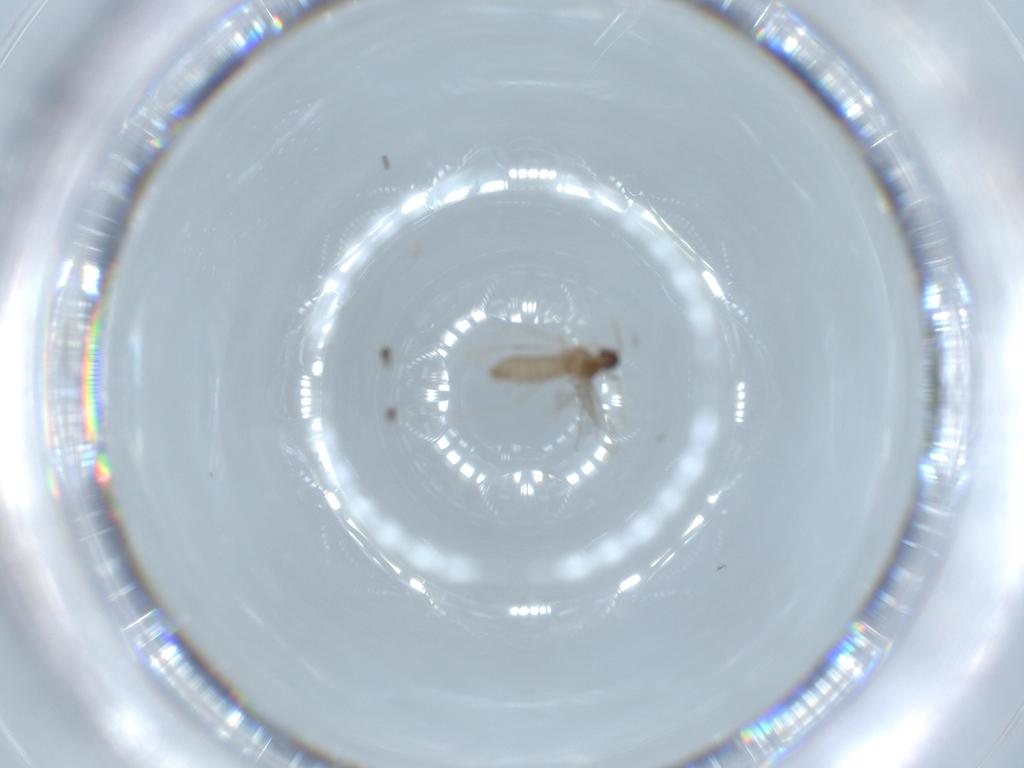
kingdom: Animalia
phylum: Arthropoda
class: Insecta
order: Diptera
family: Cecidomyiidae
